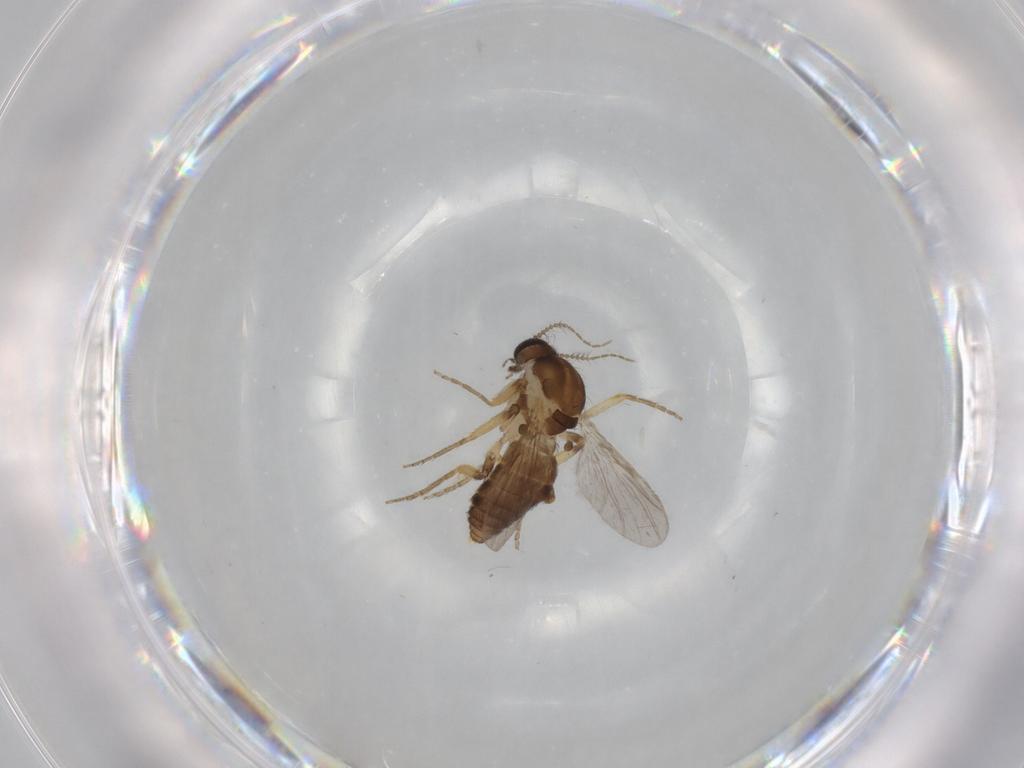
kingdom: Animalia
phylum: Arthropoda
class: Insecta
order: Diptera
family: Ceratopogonidae
